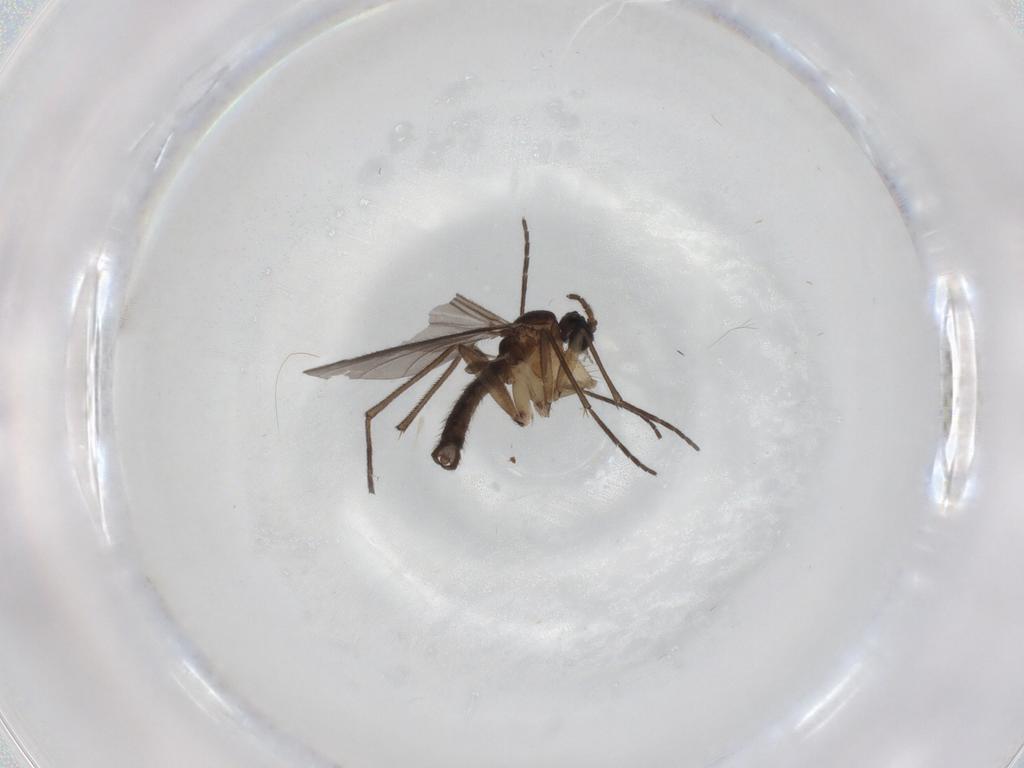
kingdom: Animalia
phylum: Arthropoda
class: Insecta
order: Diptera
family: Sciaridae
